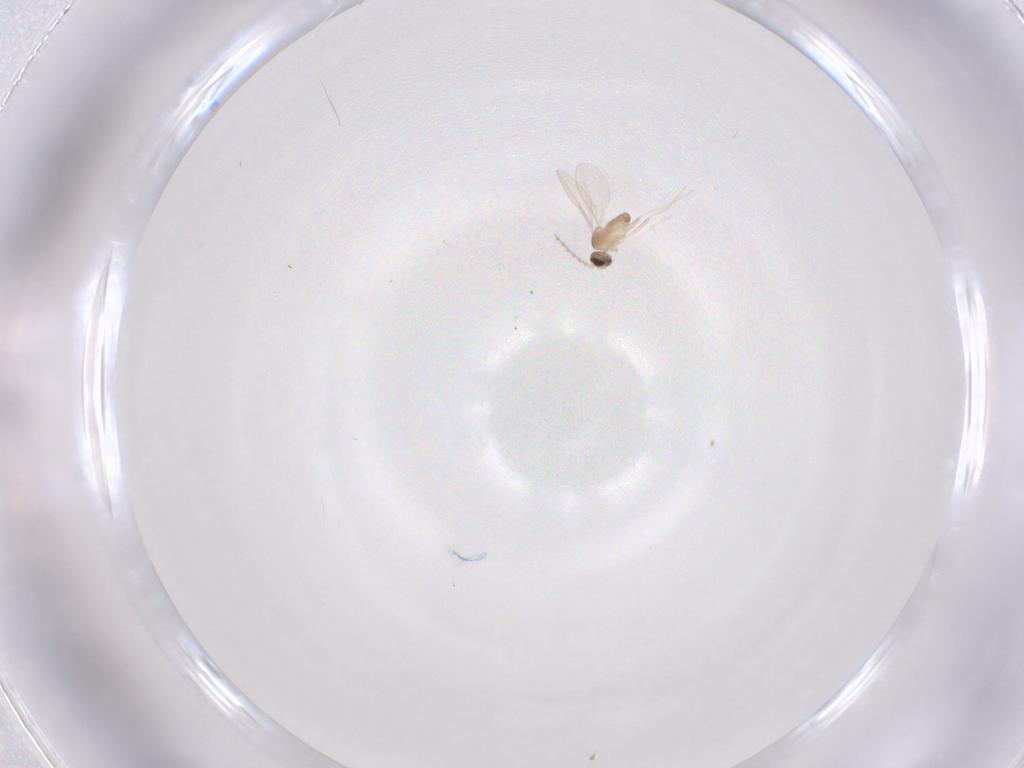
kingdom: Animalia
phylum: Arthropoda
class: Insecta
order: Diptera
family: Cecidomyiidae
